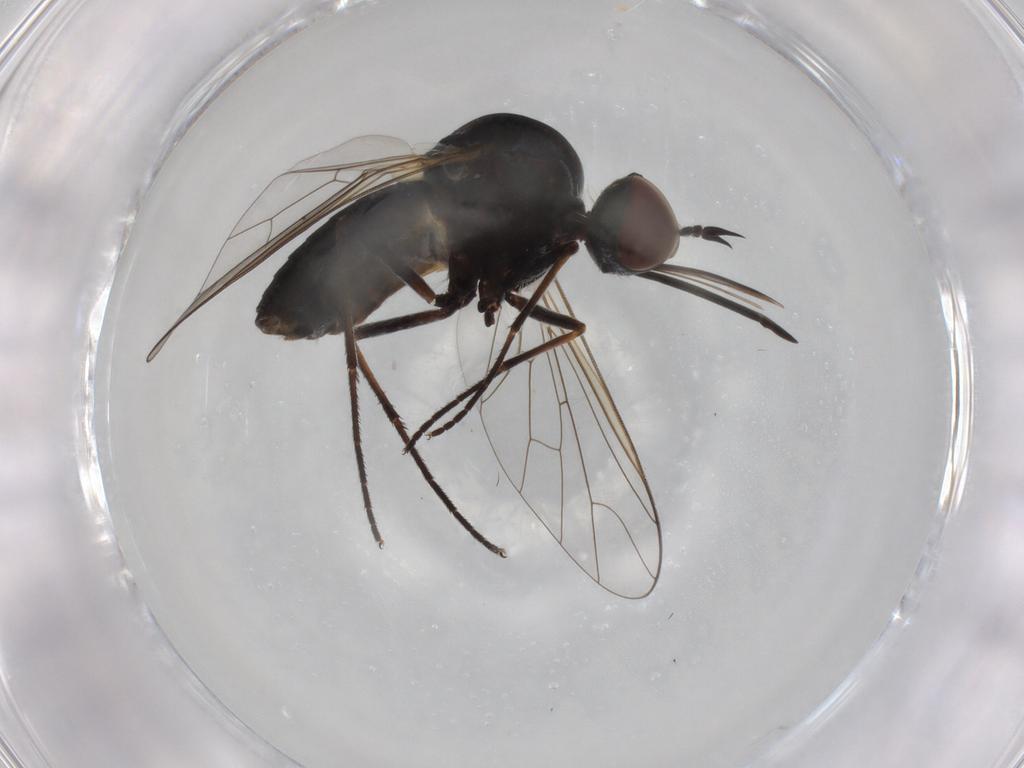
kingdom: Animalia
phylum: Arthropoda
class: Insecta
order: Diptera
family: Bombyliidae
